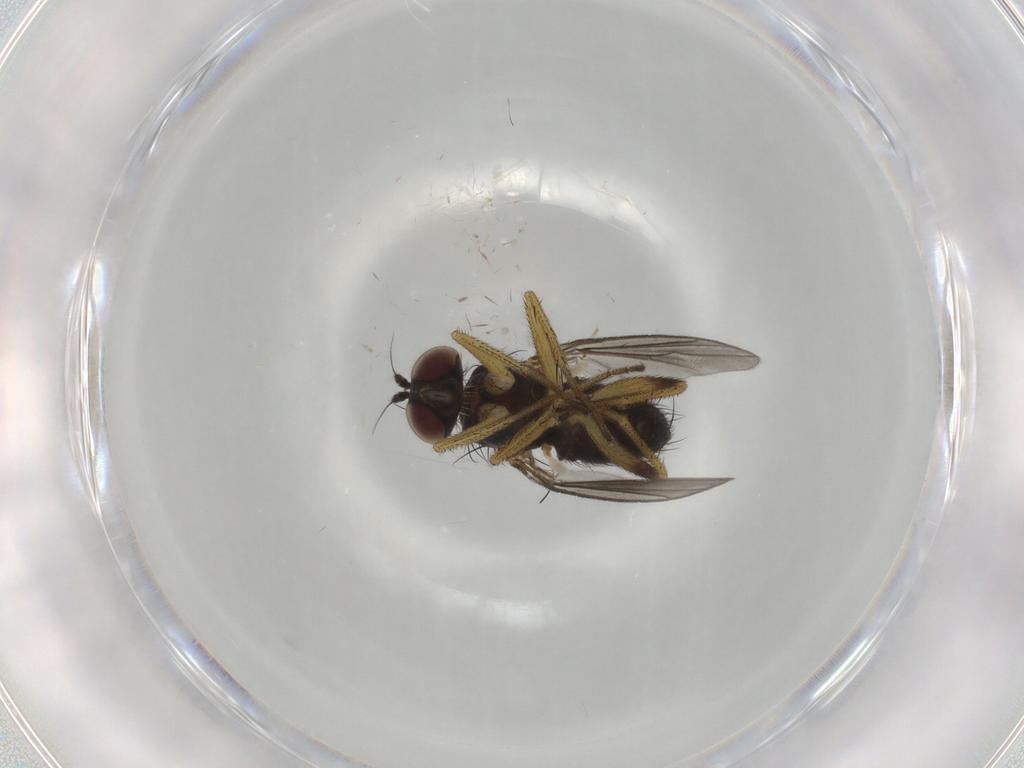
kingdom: Animalia
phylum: Arthropoda
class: Insecta
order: Diptera
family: Dolichopodidae
